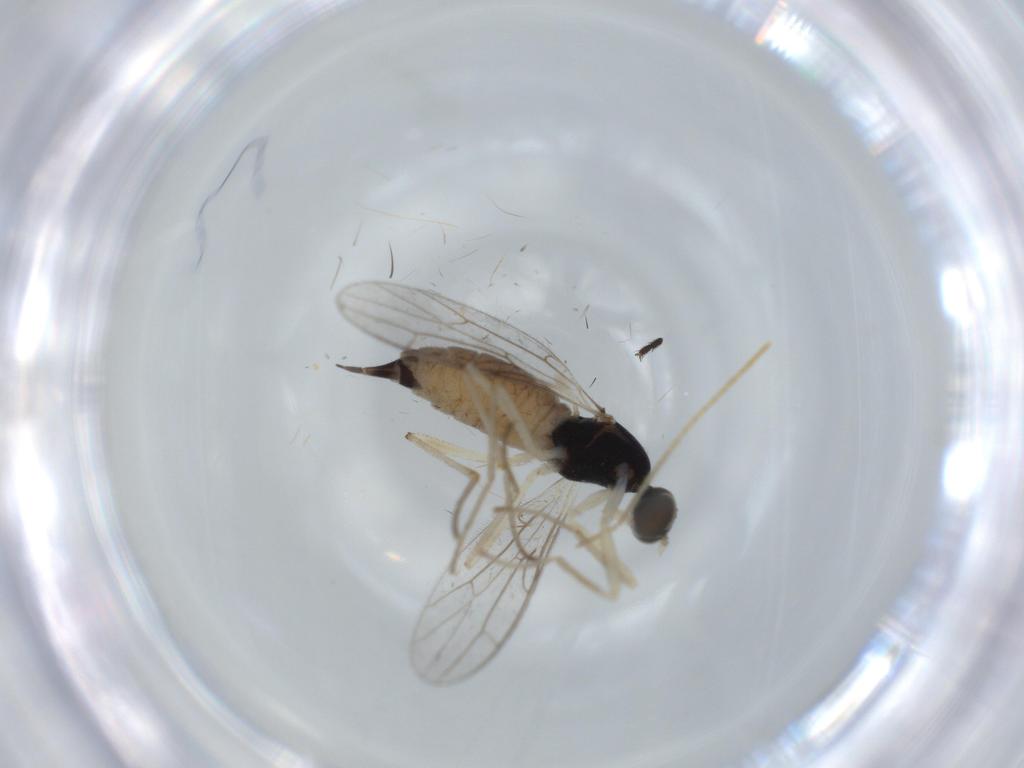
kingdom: Animalia
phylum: Arthropoda
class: Insecta
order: Diptera
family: Empididae
